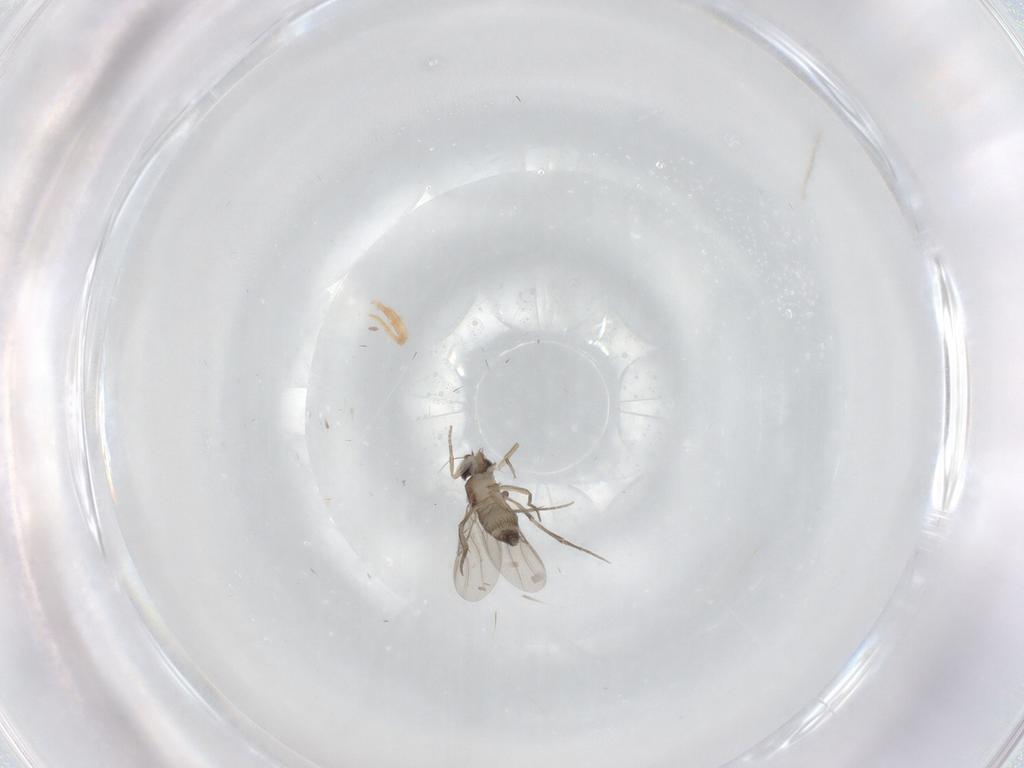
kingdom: Animalia
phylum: Arthropoda
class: Insecta
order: Diptera
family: Phoridae
